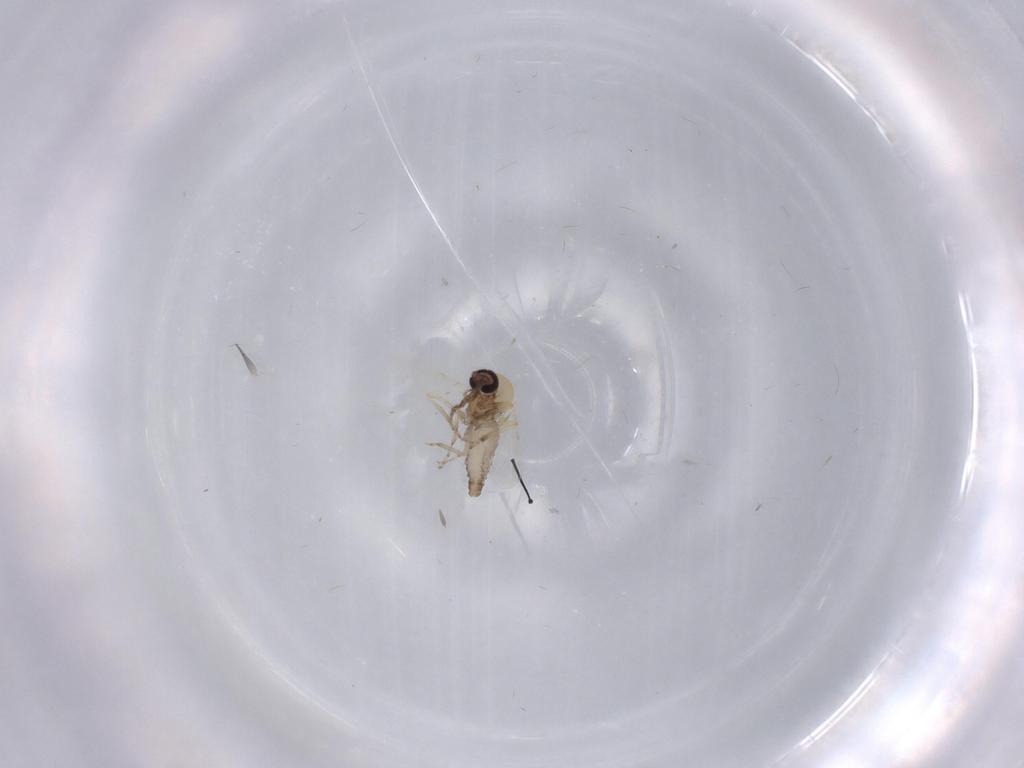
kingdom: Animalia
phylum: Arthropoda
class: Insecta
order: Diptera
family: Ceratopogonidae
